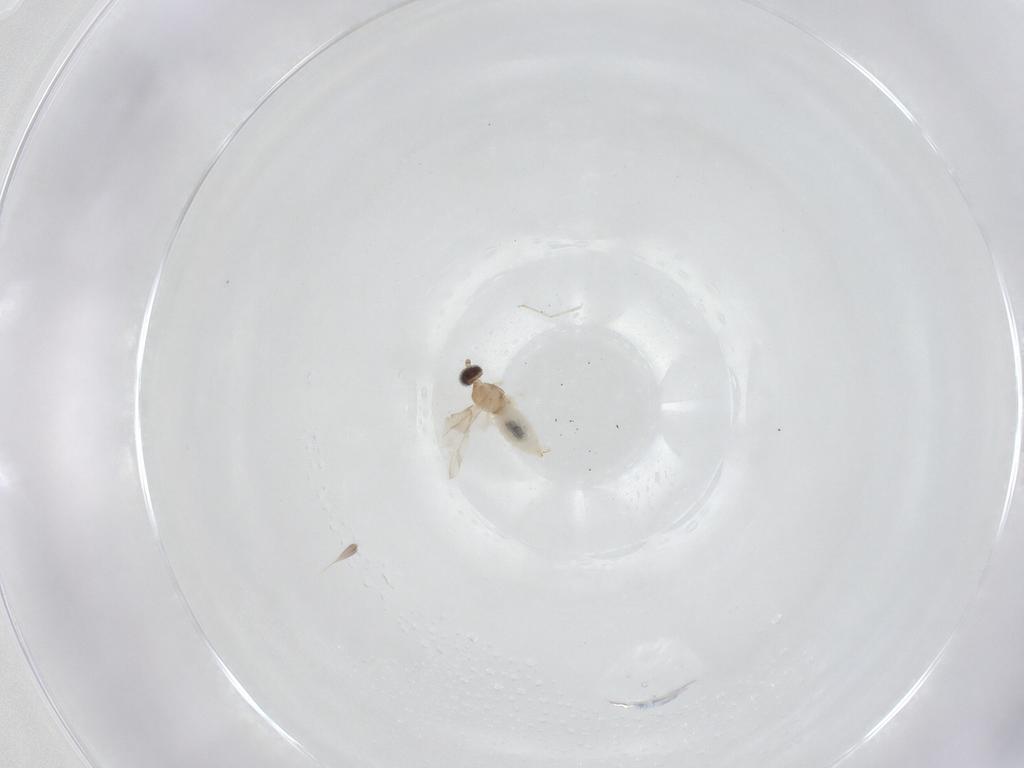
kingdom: Animalia
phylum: Arthropoda
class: Insecta
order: Diptera
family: Cecidomyiidae
